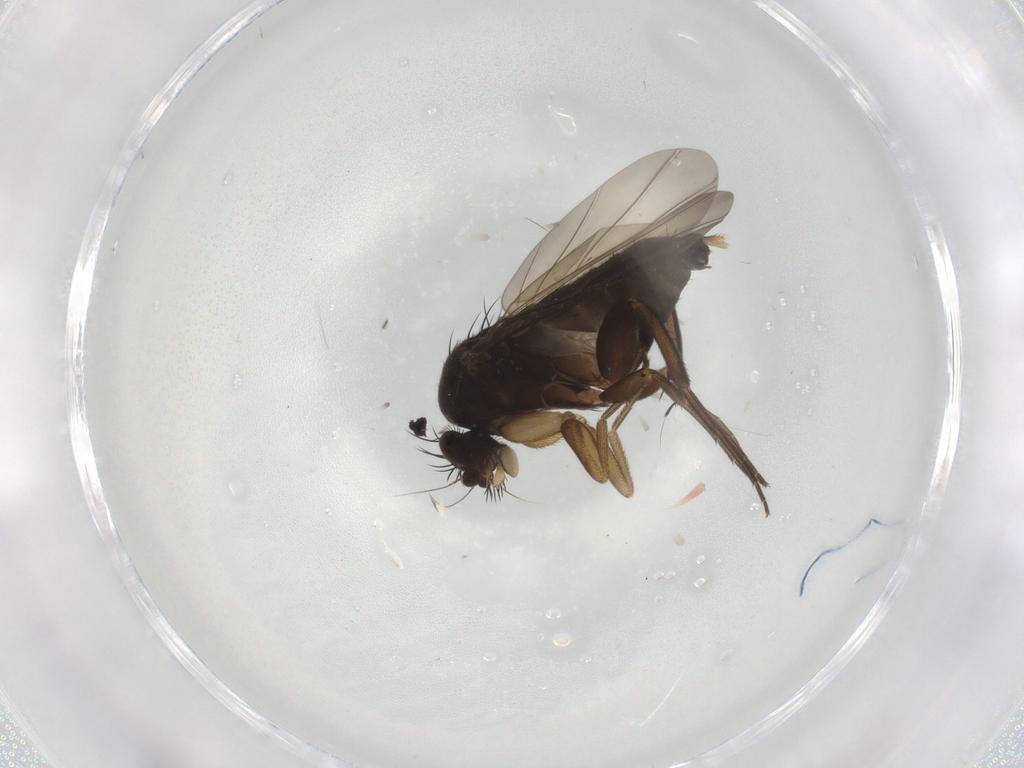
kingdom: Animalia
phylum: Arthropoda
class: Insecta
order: Diptera
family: Phoridae
